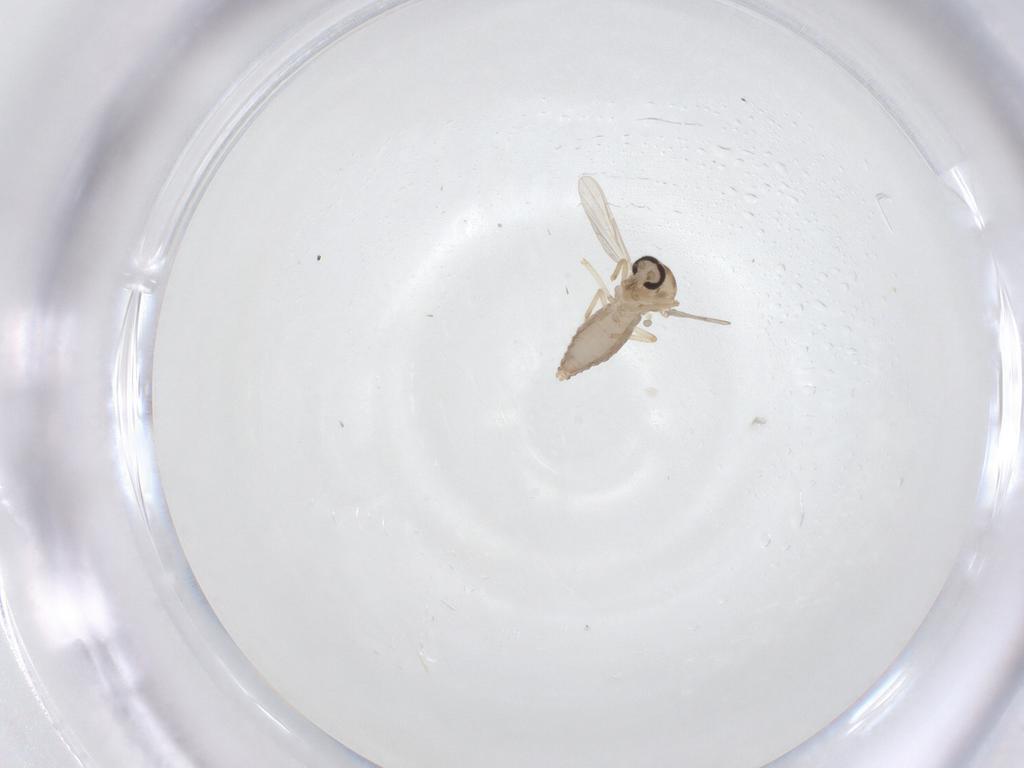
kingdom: Animalia
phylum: Arthropoda
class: Insecta
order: Diptera
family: Ceratopogonidae
